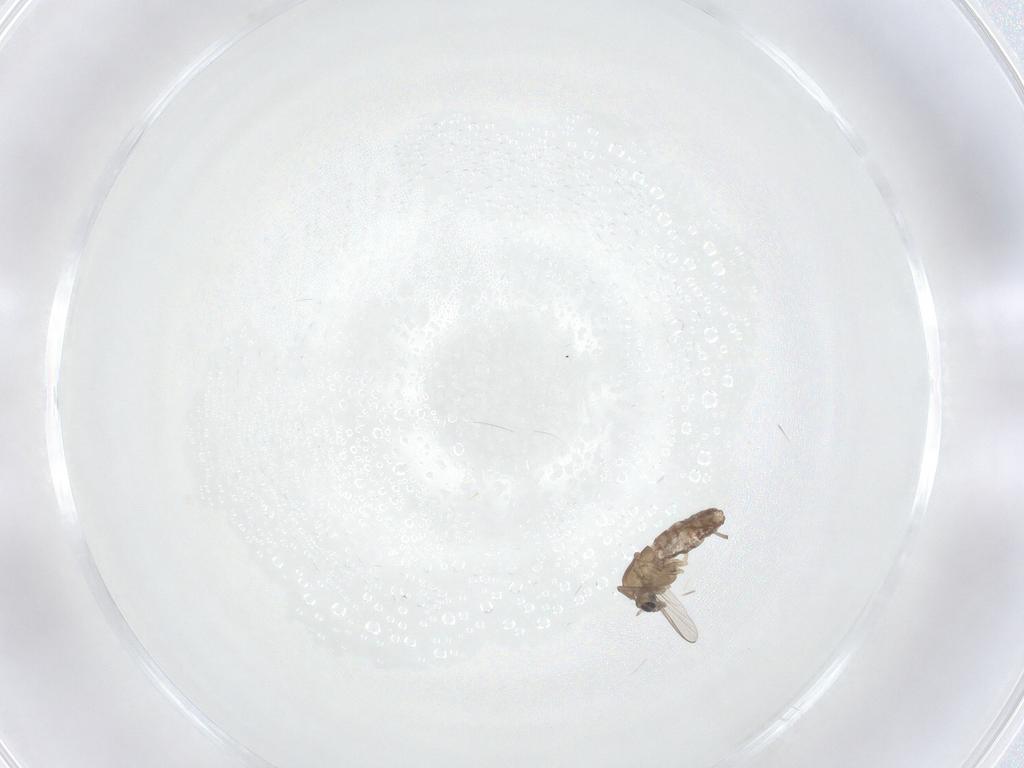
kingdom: Animalia
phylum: Arthropoda
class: Insecta
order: Diptera
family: Chironomidae
